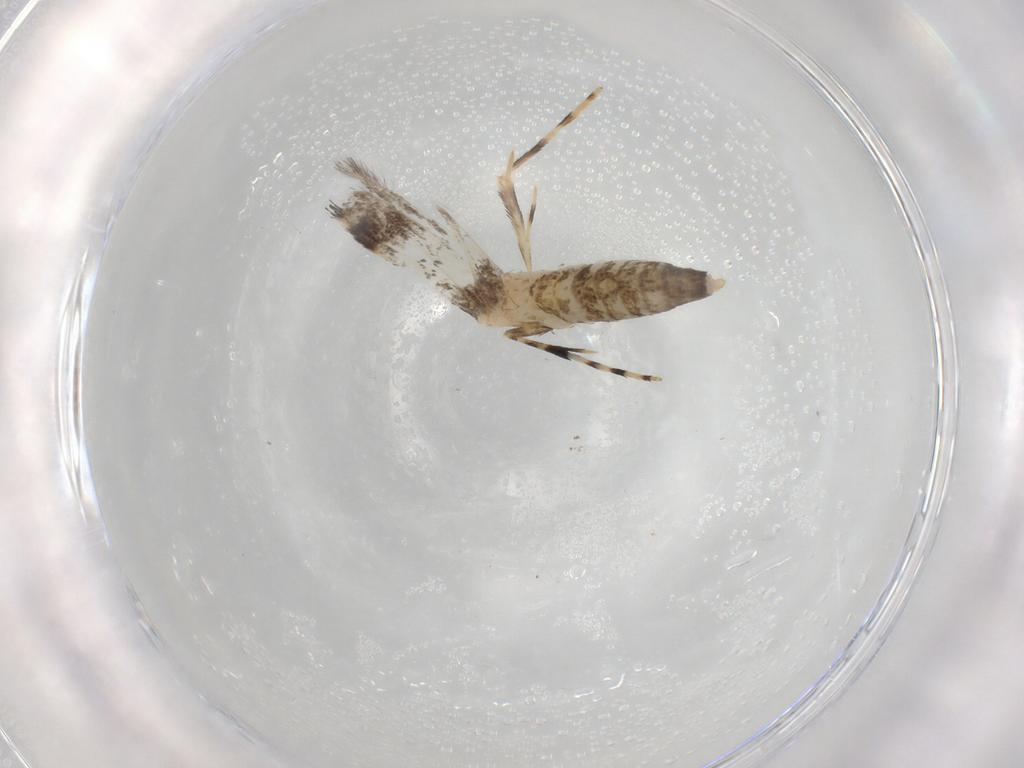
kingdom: Animalia
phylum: Arthropoda
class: Insecta
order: Lepidoptera
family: Gracillariidae
